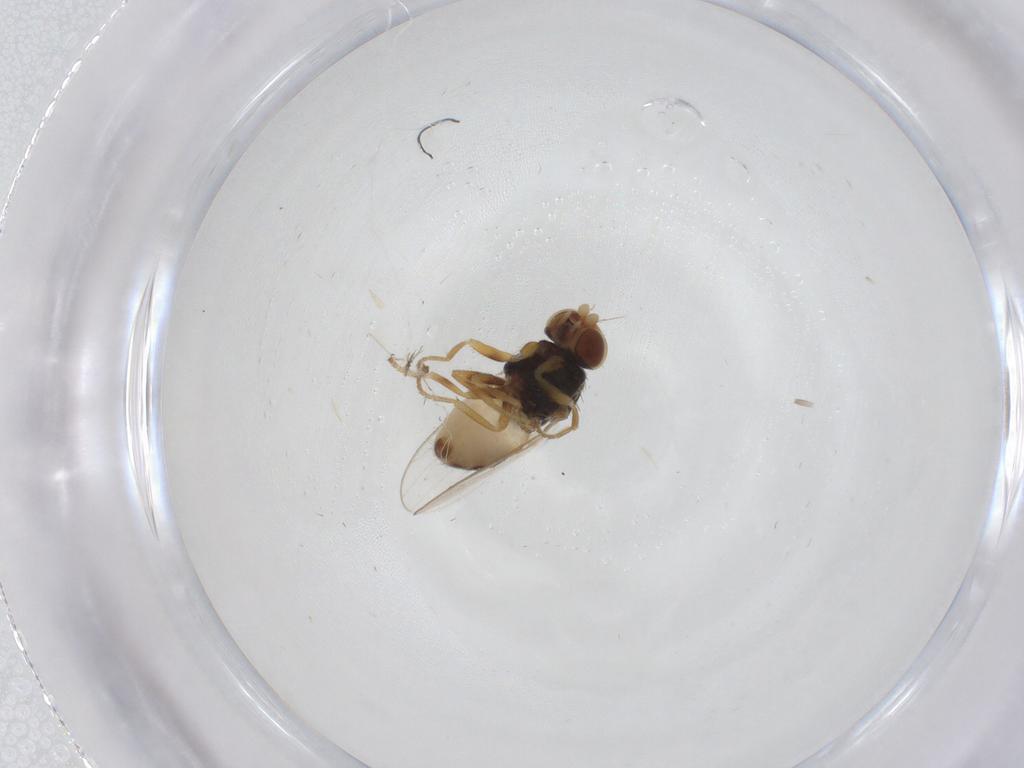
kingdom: Animalia
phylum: Arthropoda
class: Insecta
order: Diptera
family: Chloropidae
